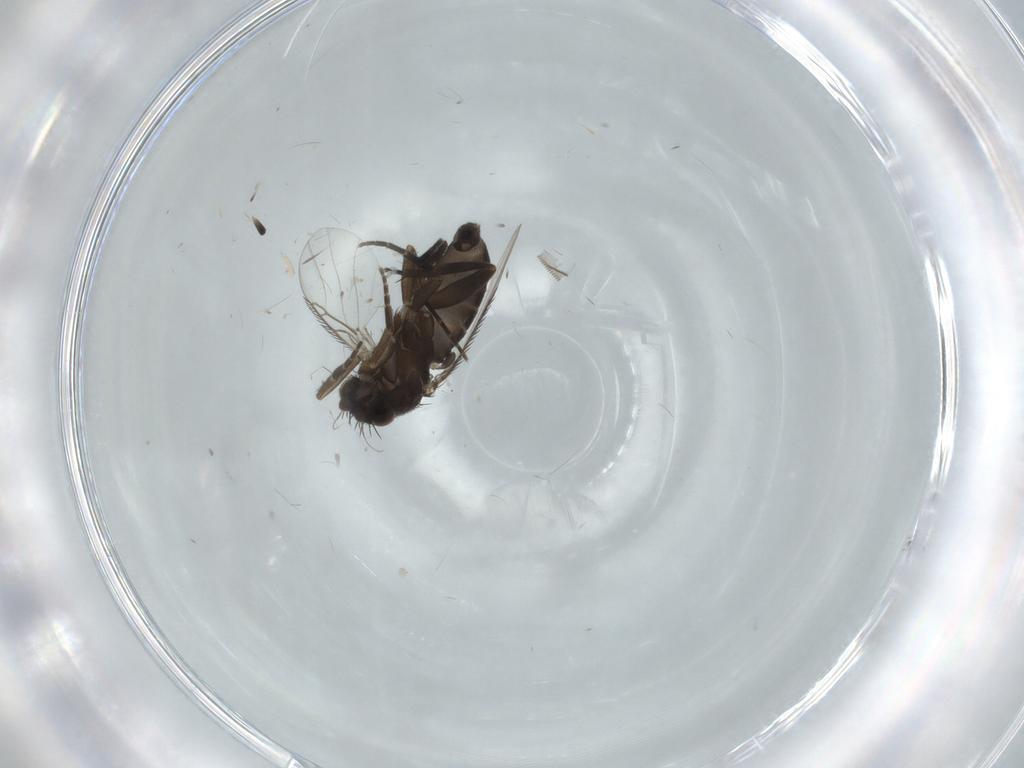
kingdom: Animalia
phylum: Arthropoda
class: Insecta
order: Diptera
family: Phoridae
